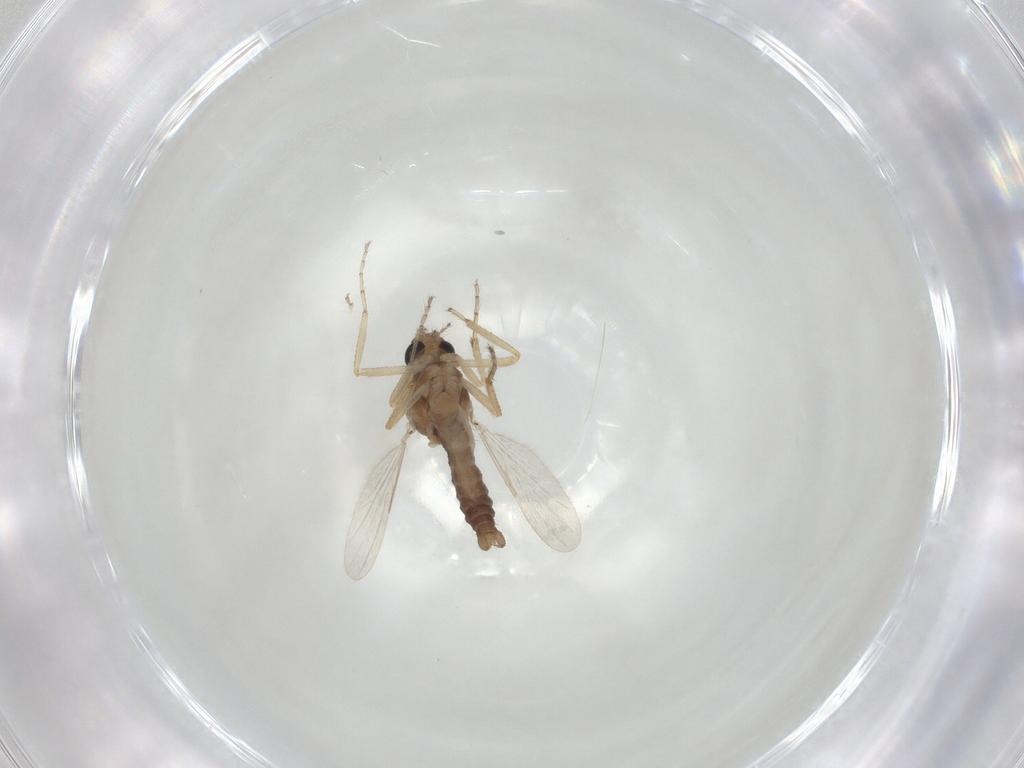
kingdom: Animalia
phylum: Arthropoda
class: Insecta
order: Diptera
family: Ceratopogonidae
